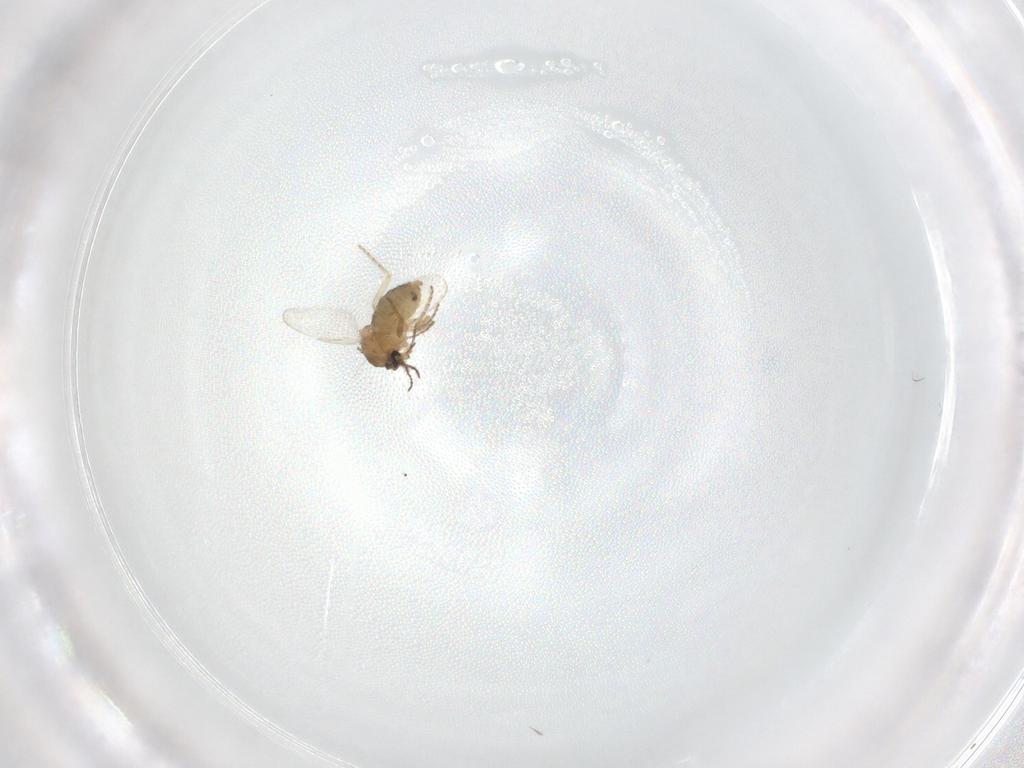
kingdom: Animalia
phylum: Arthropoda
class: Insecta
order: Diptera
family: Ceratopogonidae
